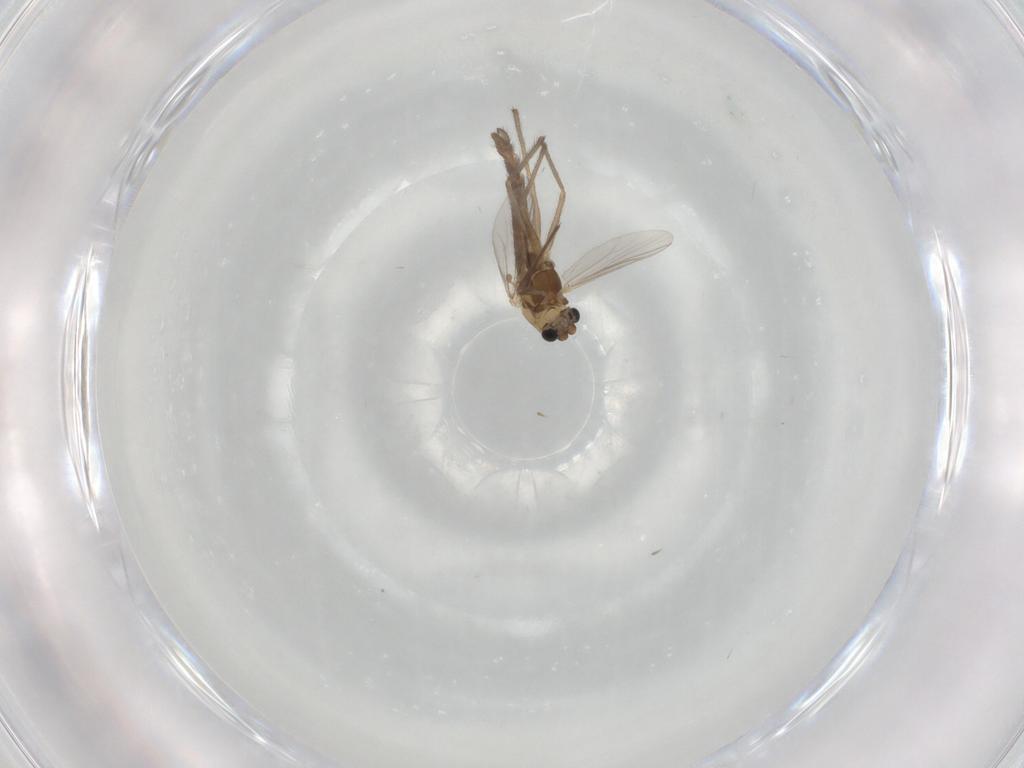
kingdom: Animalia
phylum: Arthropoda
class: Insecta
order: Diptera
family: Chironomidae
